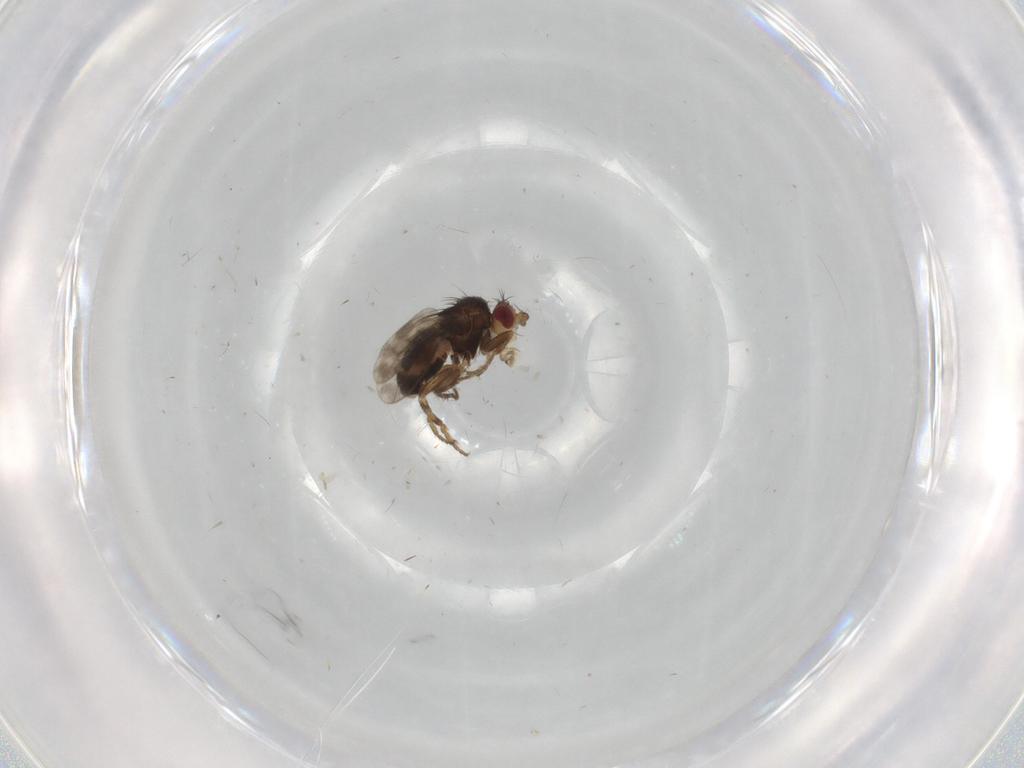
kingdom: Animalia
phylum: Arthropoda
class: Insecta
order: Diptera
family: Sphaeroceridae
